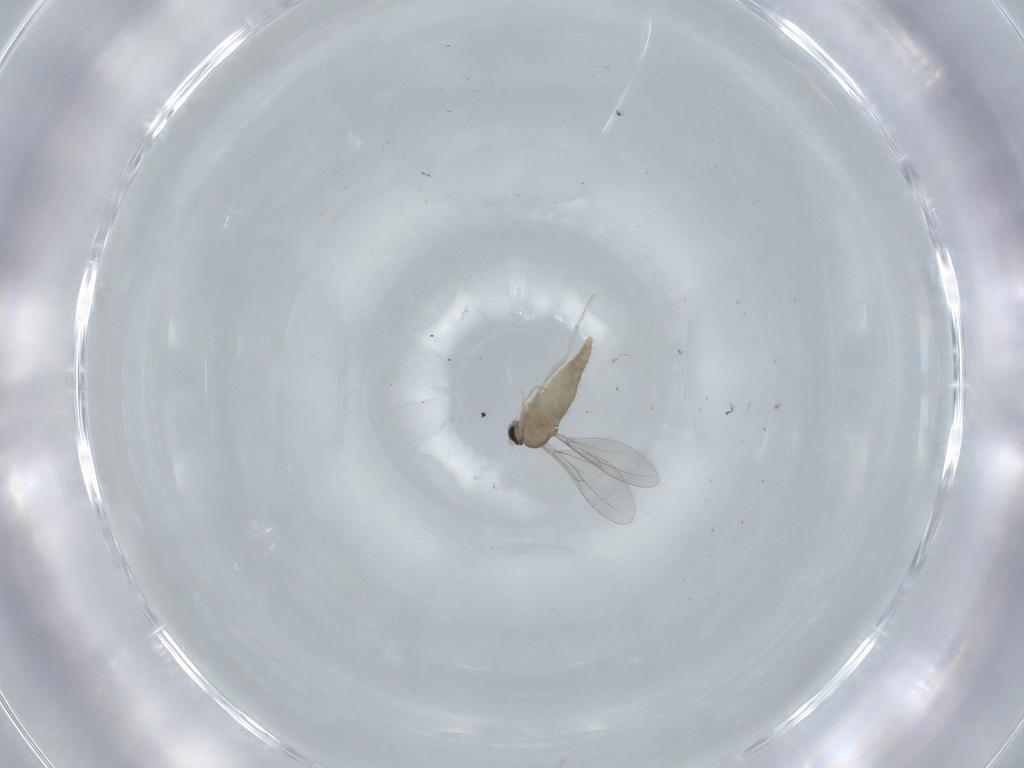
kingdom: Animalia
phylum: Arthropoda
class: Insecta
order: Diptera
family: Cecidomyiidae
